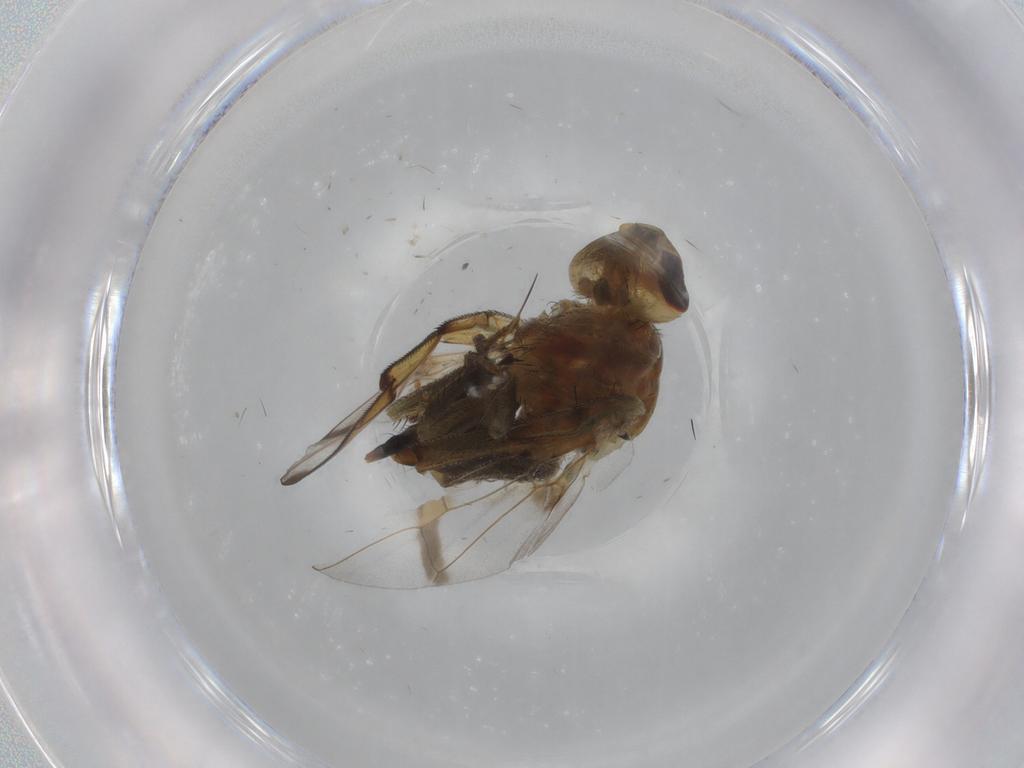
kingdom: Animalia
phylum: Arthropoda
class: Insecta
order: Diptera
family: Tephritidae
